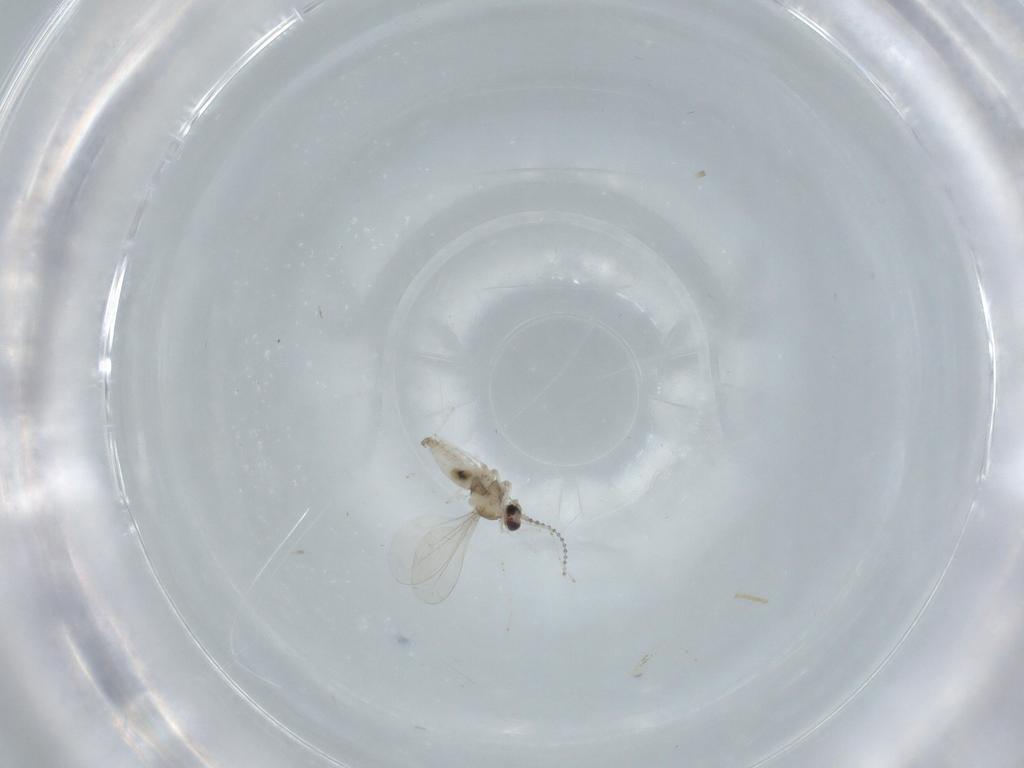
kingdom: Animalia
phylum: Arthropoda
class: Insecta
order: Diptera
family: Cecidomyiidae
